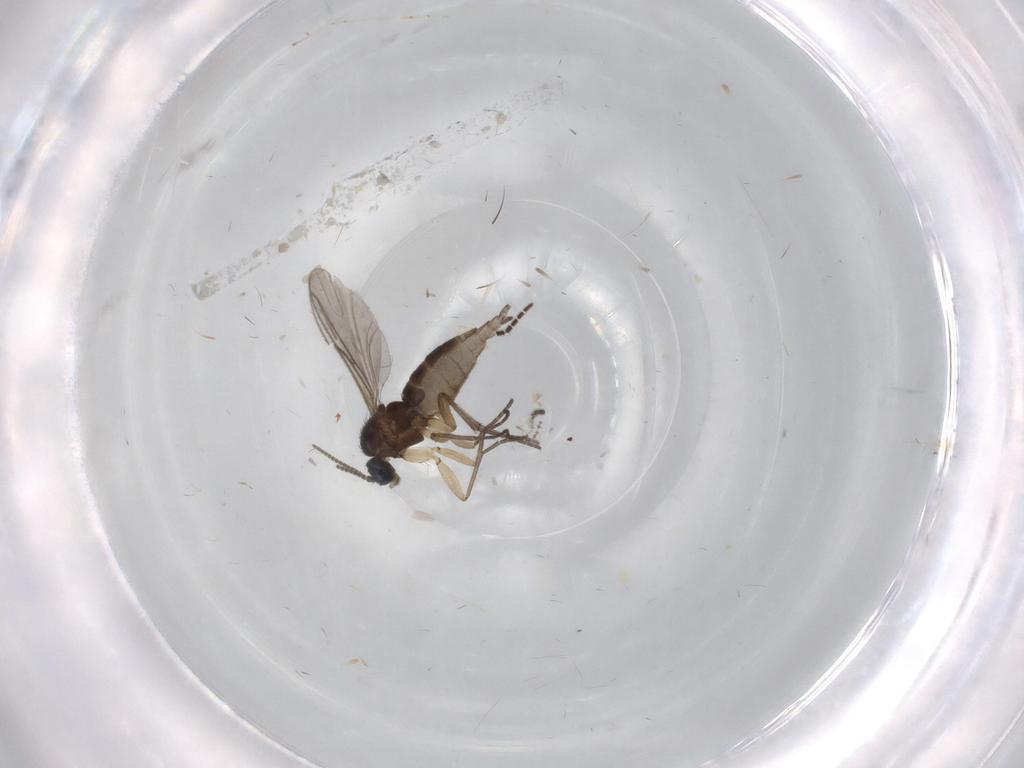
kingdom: Animalia
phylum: Arthropoda
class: Insecta
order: Diptera
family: Sciaridae
